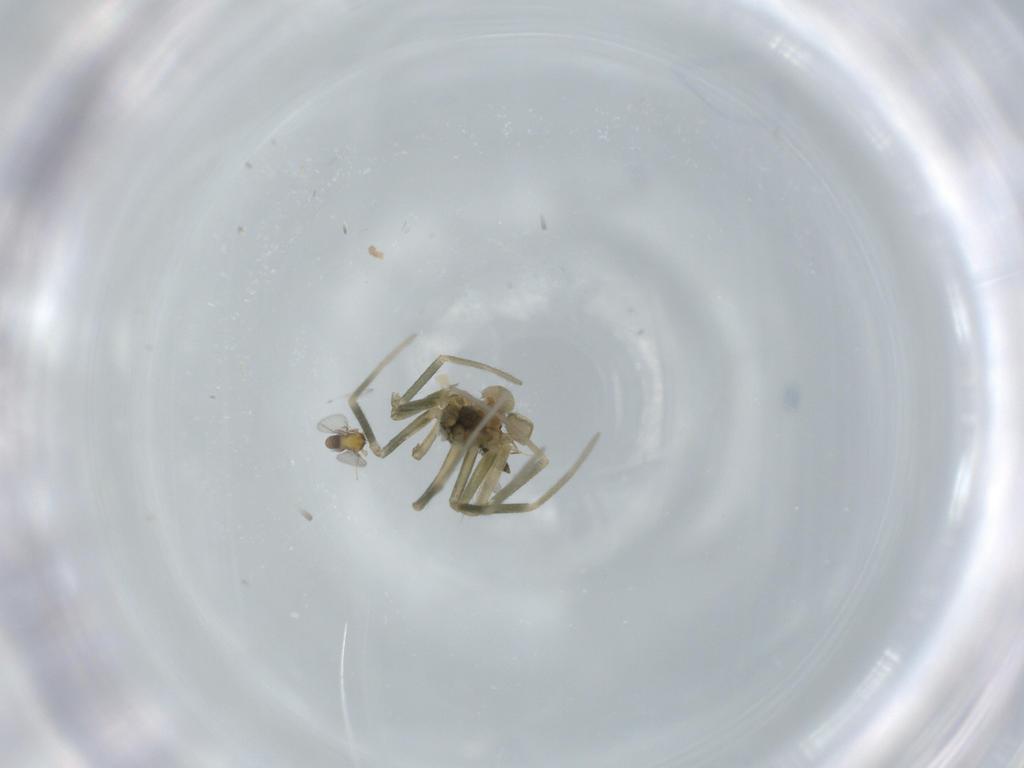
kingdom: Animalia
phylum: Arthropoda
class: Arachnida
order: Araneae
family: Linyphiidae
